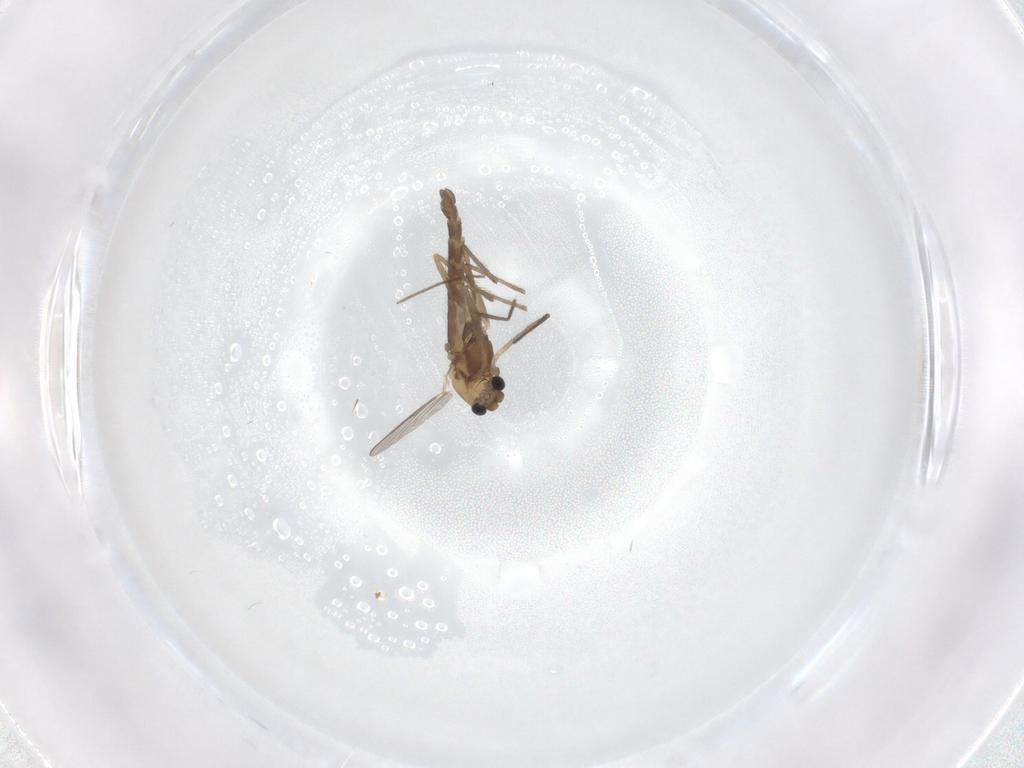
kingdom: Animalia
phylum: Arthropoda
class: Insecta
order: Diptera
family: Chironomidae
